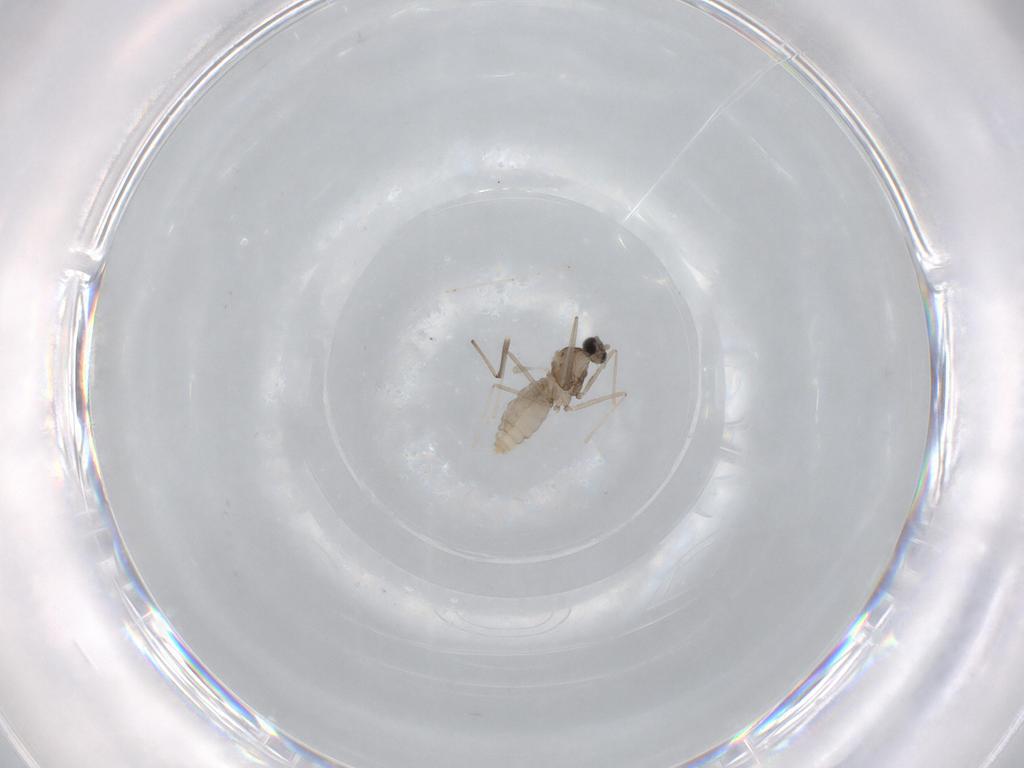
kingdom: Animalia
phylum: Arthropoda
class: Insecta
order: Diptera
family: Cecidomyiidae
